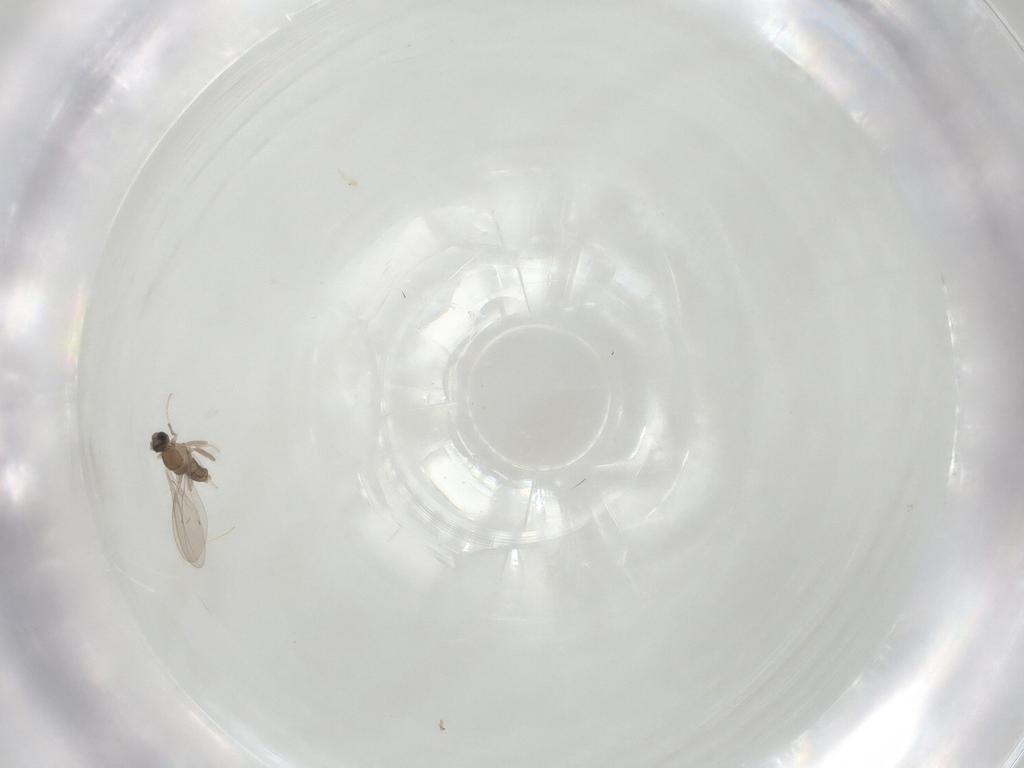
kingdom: Animalia
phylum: Arthropoda
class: Insecta
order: Diptera
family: Cecidomyiidae
